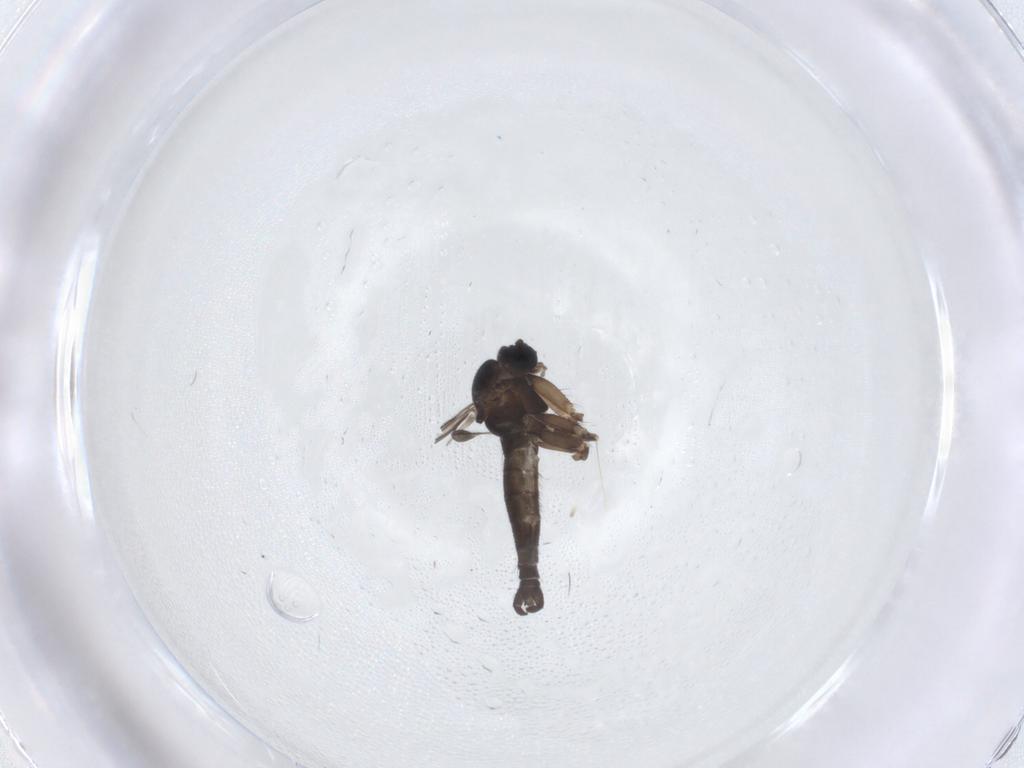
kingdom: Animalia
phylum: Arthropoda
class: Insecta
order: Diptera
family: Sciaridae
